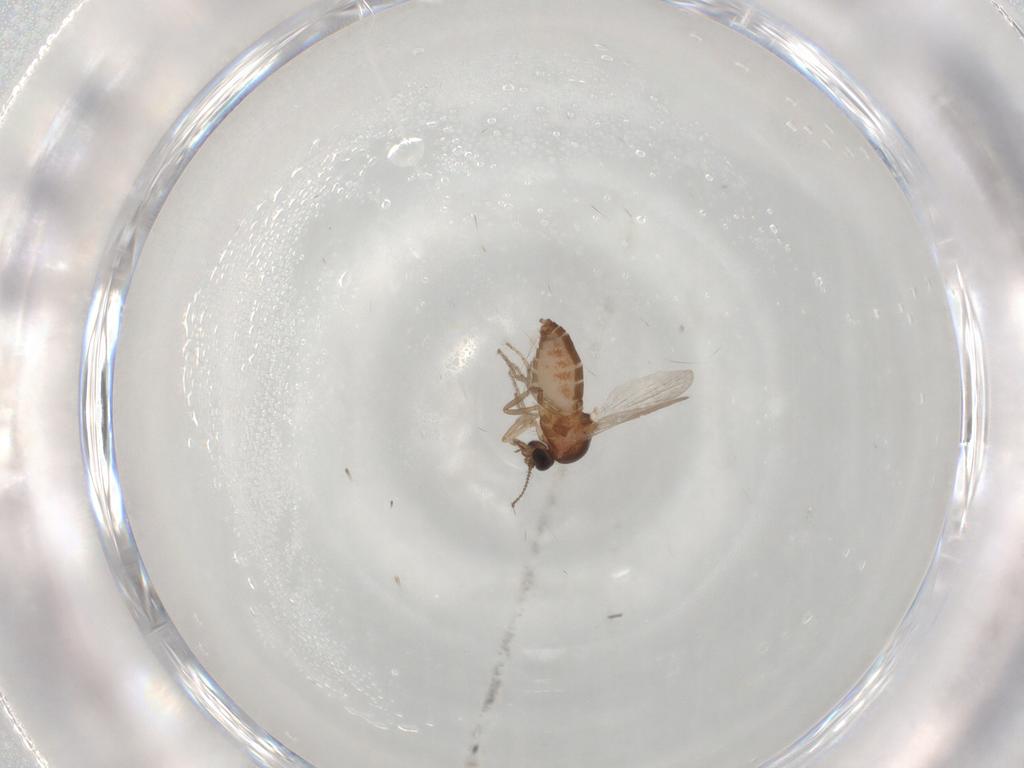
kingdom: Animalia
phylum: Arthropoda
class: Insecta
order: Diptera
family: Ceratopogonidae
